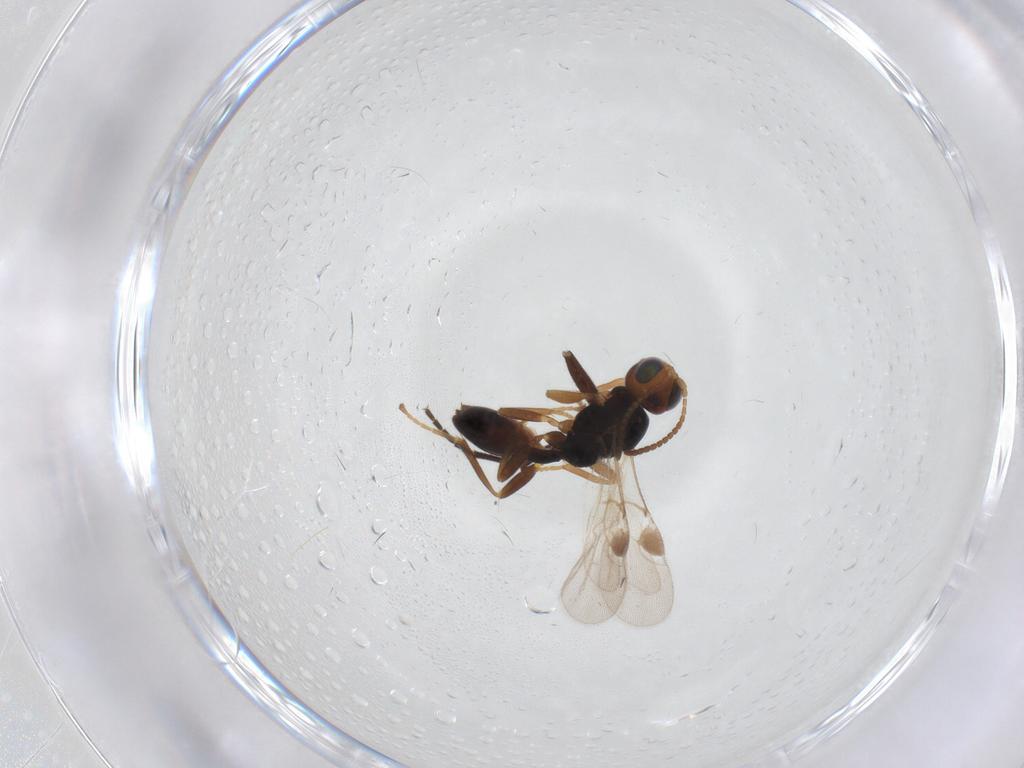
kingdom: Animalia
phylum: Arthropoda
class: Insecta
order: Hymenoptera
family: Braconidae
